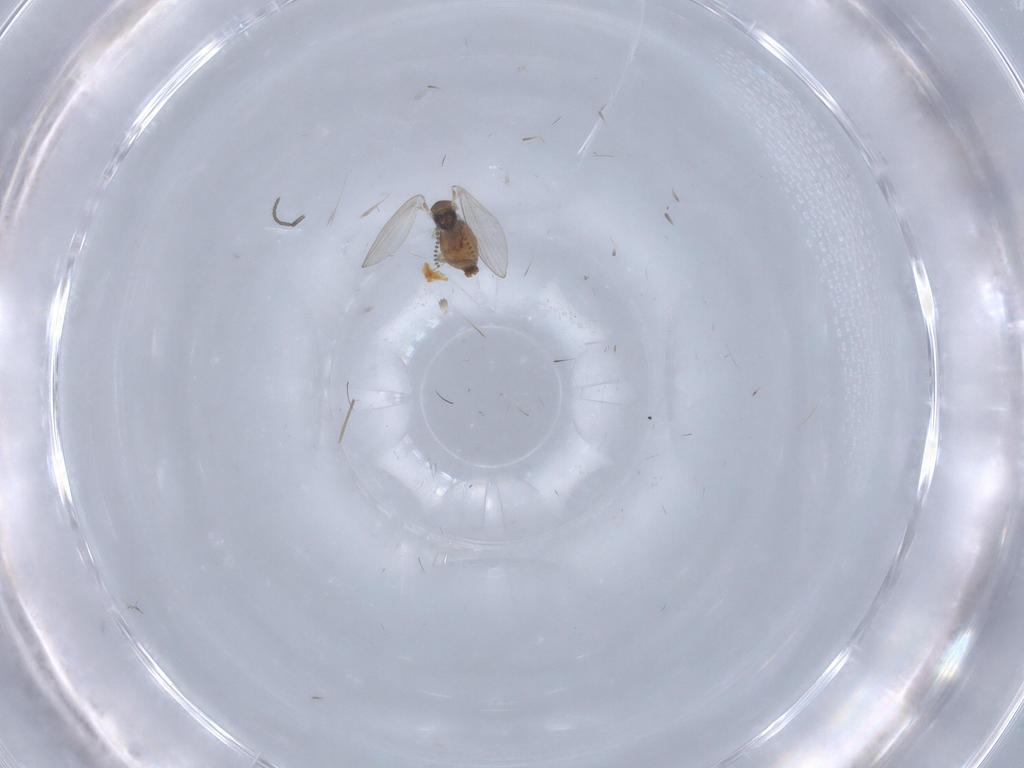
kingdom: Animalia
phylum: Arthropoda
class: Insecta
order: Diptera
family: Psychodidae
